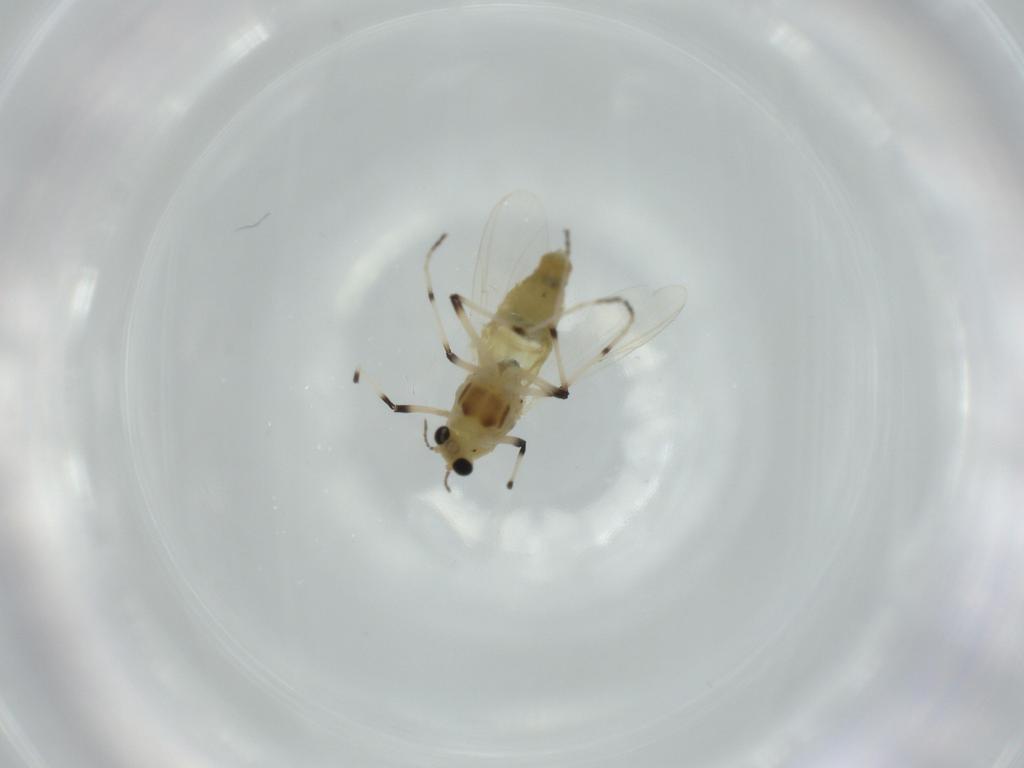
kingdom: Animalia
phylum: Arthropoda
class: Insecta
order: Diptera
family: Chironomidae
